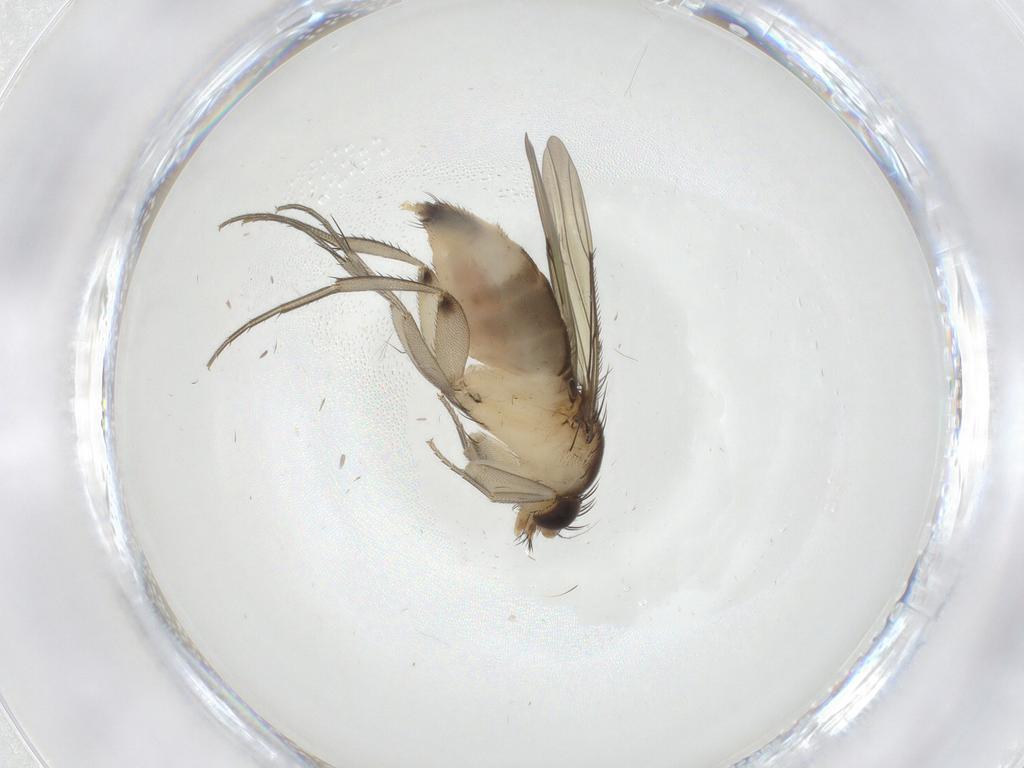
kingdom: Animalia
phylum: Arthropoda
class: Insecta
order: Diptera
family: Cecidomyiidae
